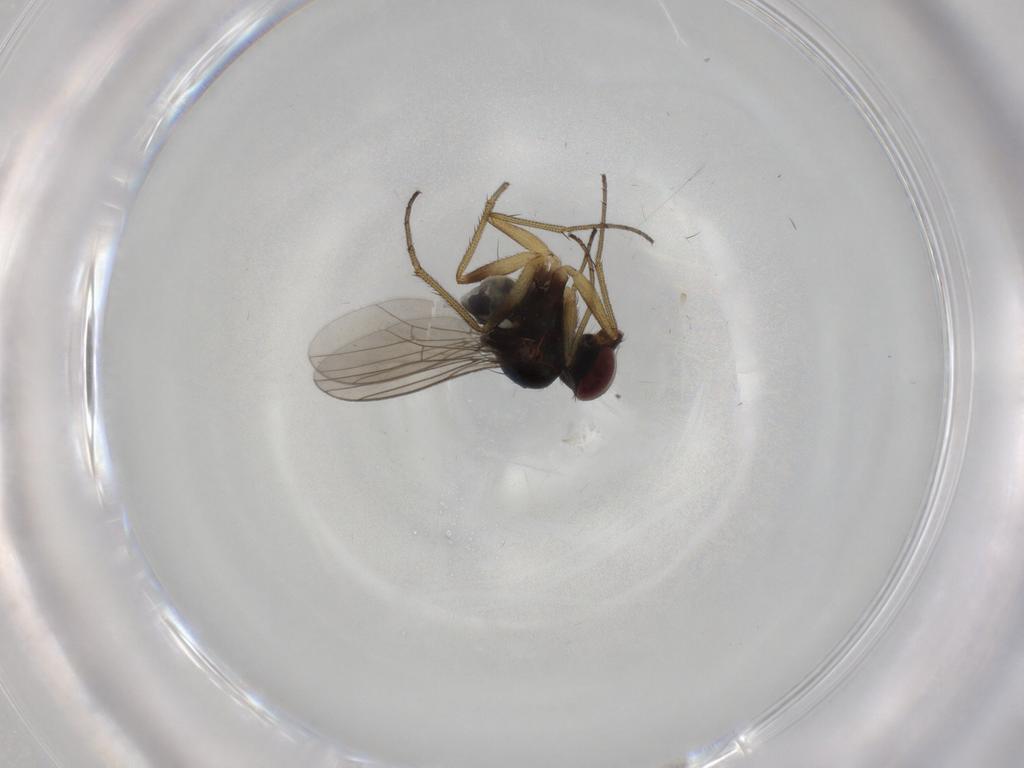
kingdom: Animalia
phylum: Arthropoda
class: Insecta
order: Diptera
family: Dolichopodidae
